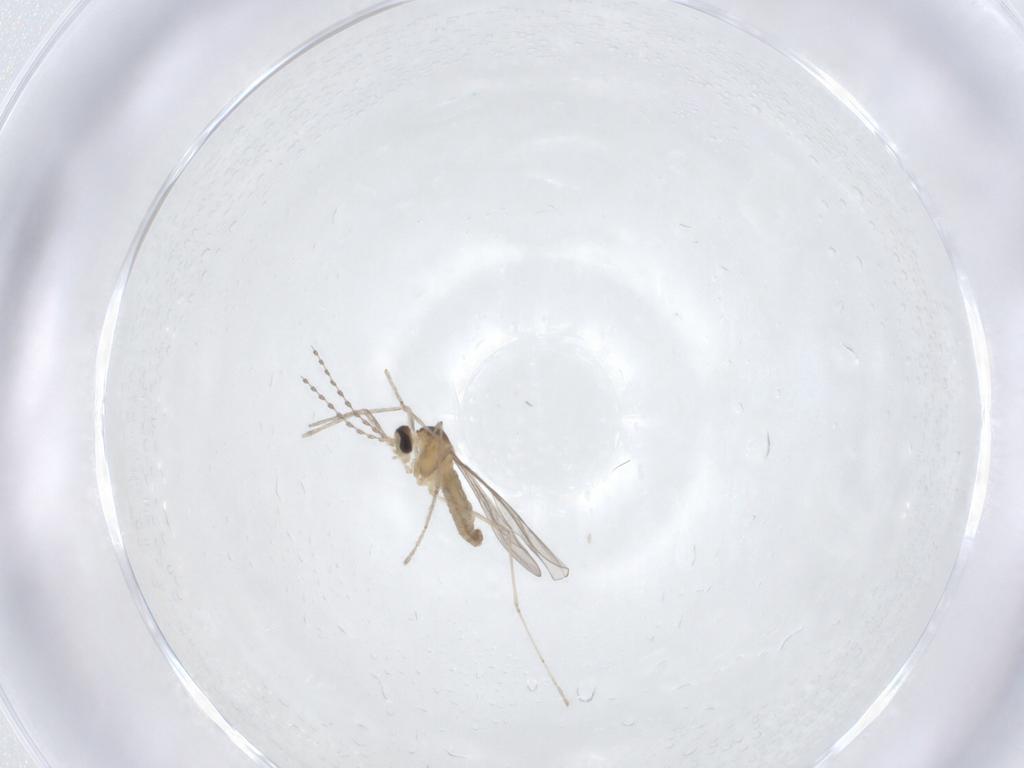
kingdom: Animalia
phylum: Arthropoda
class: Insecta
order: Diptera
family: Cecidomyiidae
